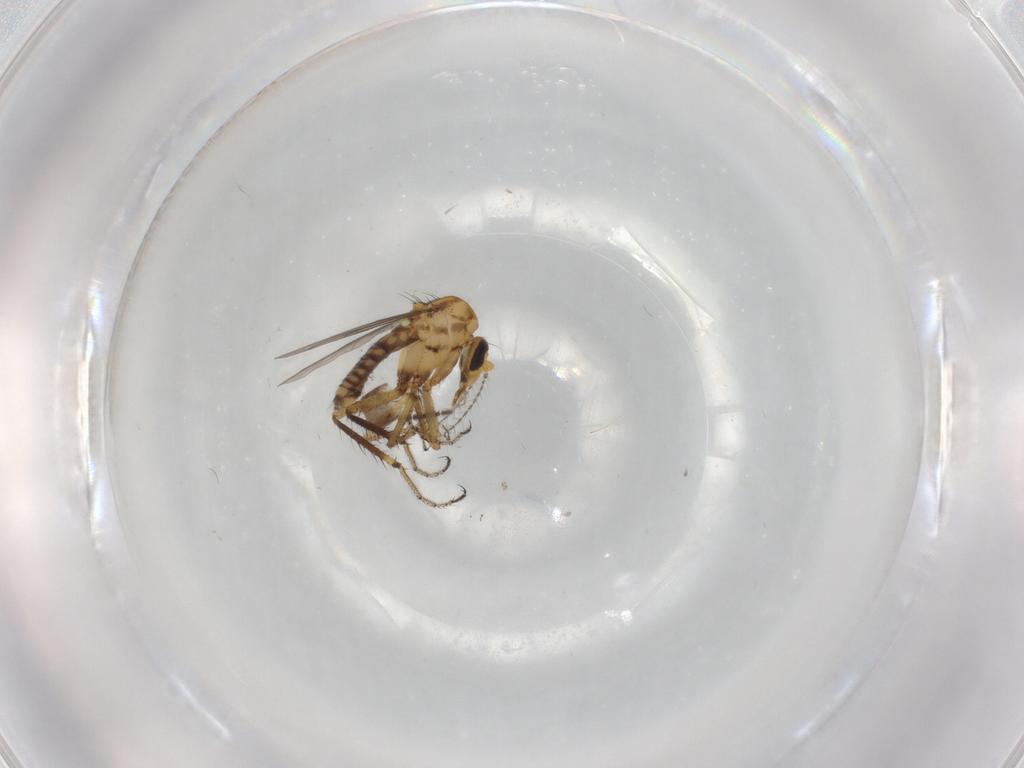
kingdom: Animalia
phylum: Arthropoda
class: Insecta
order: Diptera
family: Ceratopogonidae
